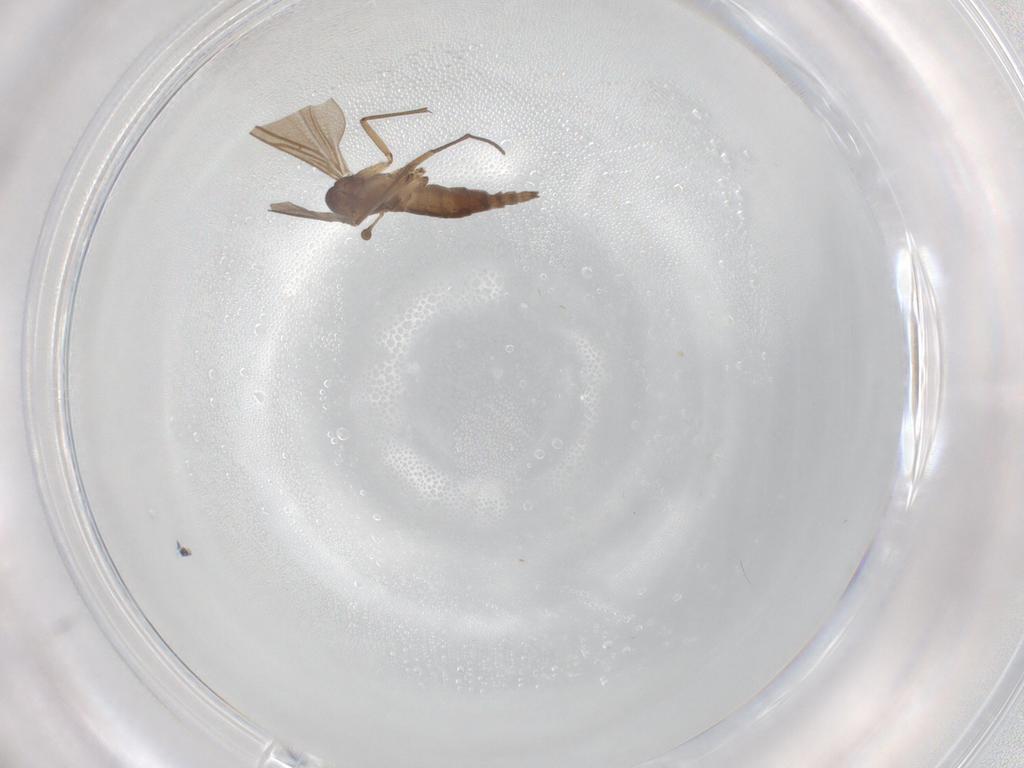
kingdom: Animalia
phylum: Arthropoda
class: Insecta
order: Diptera
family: Sciaridae
